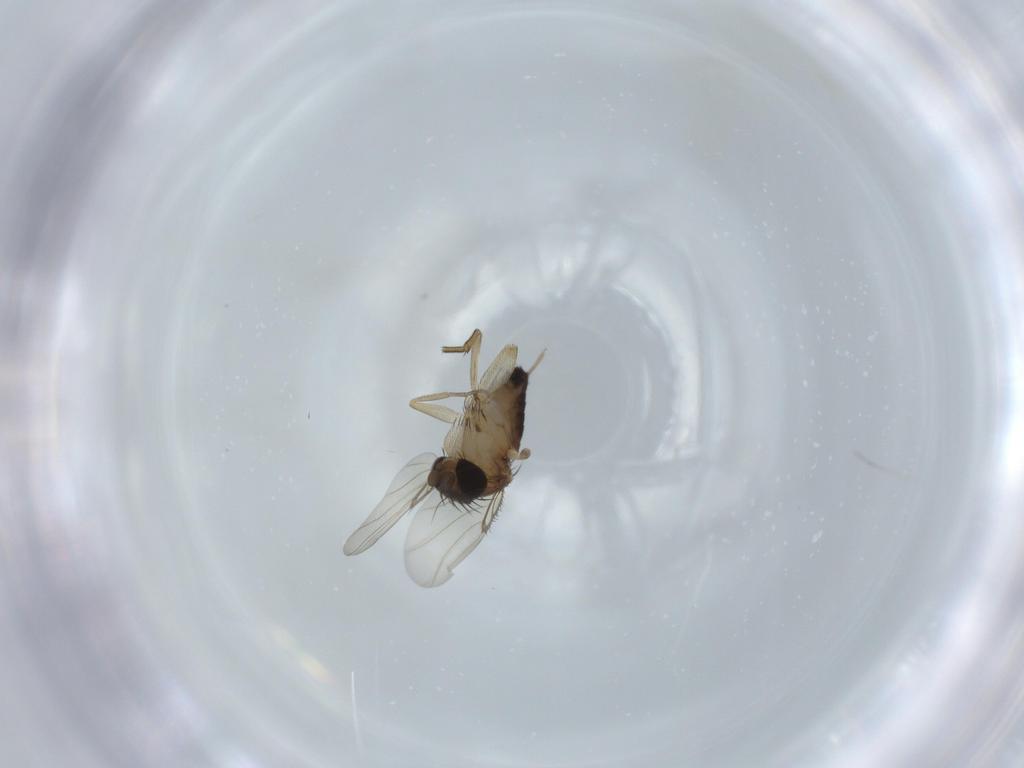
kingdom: Animalia
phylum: Arthropoda
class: Insecta
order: Diptera
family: Phoridae
